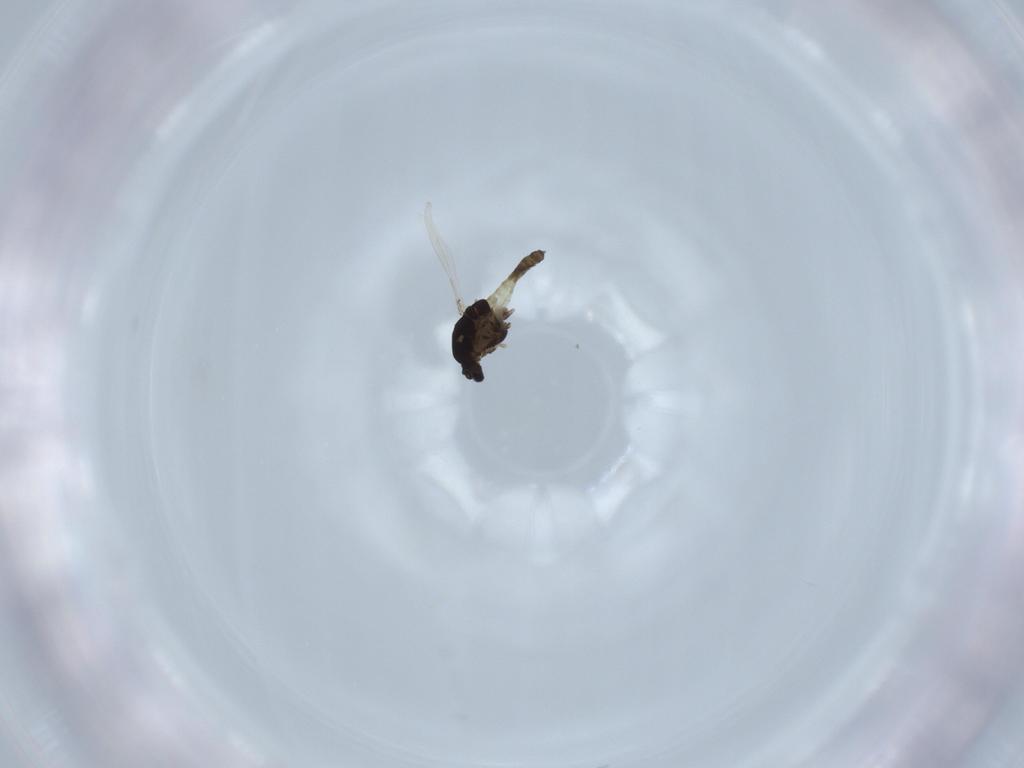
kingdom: Animalia
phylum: Arthropoda
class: Insecta
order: Diptera
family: Chironomidae
